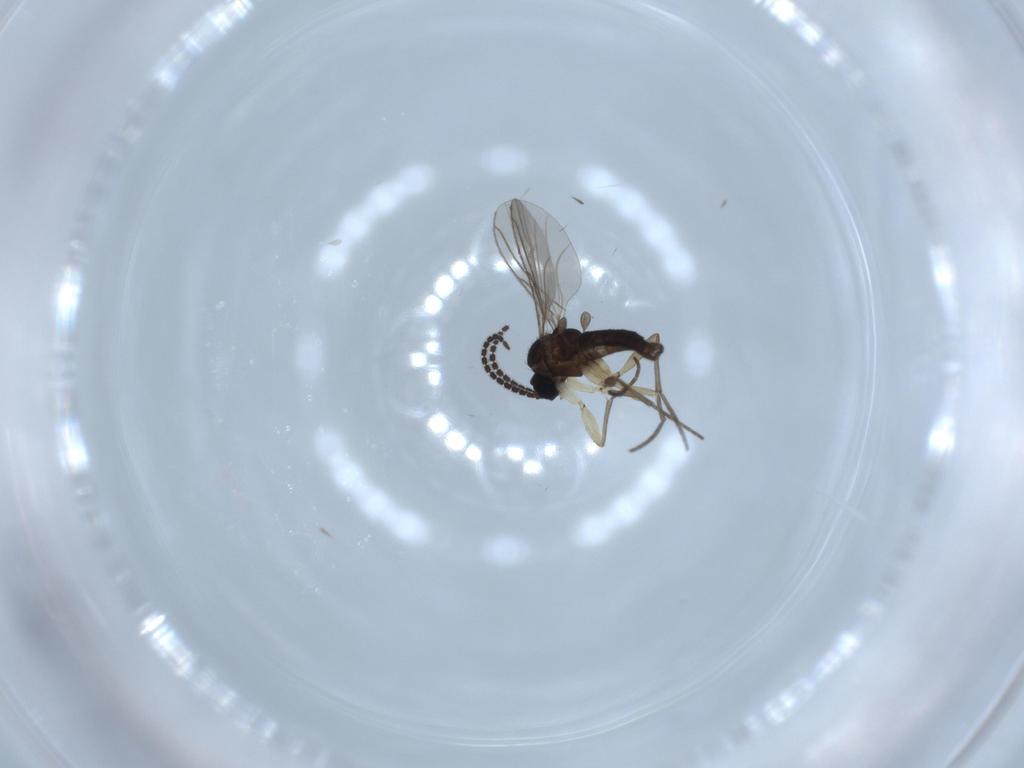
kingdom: Animalia
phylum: Arthropoda
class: Insecta
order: Diptera
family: Sciaridae
